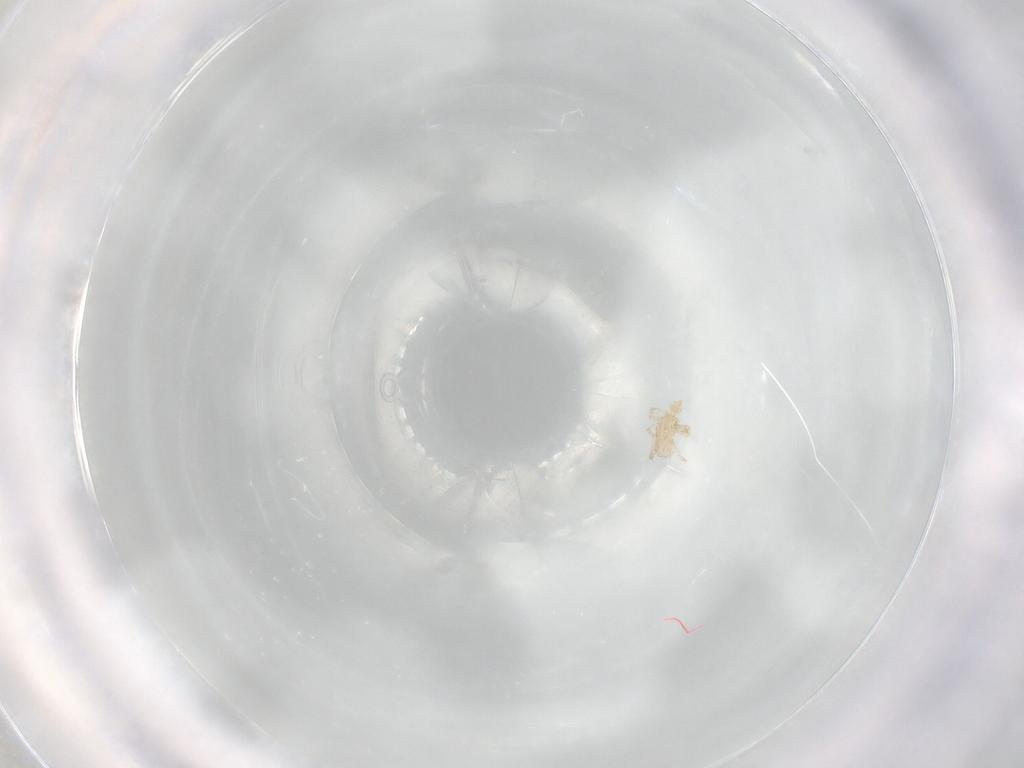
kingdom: Animalia
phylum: Arthropoda
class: Arachnida
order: Trombidiformes
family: Erythraeidae
